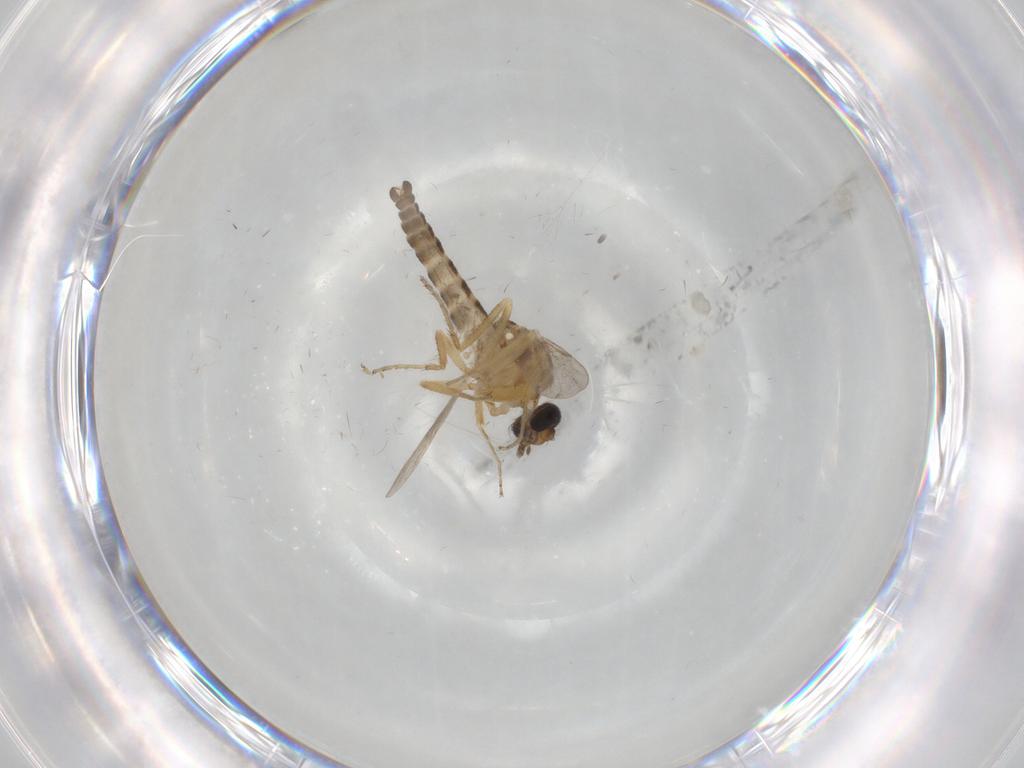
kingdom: Animalia
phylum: Arthropoda
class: Insecta
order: Diptera
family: Ceratopogonidae
